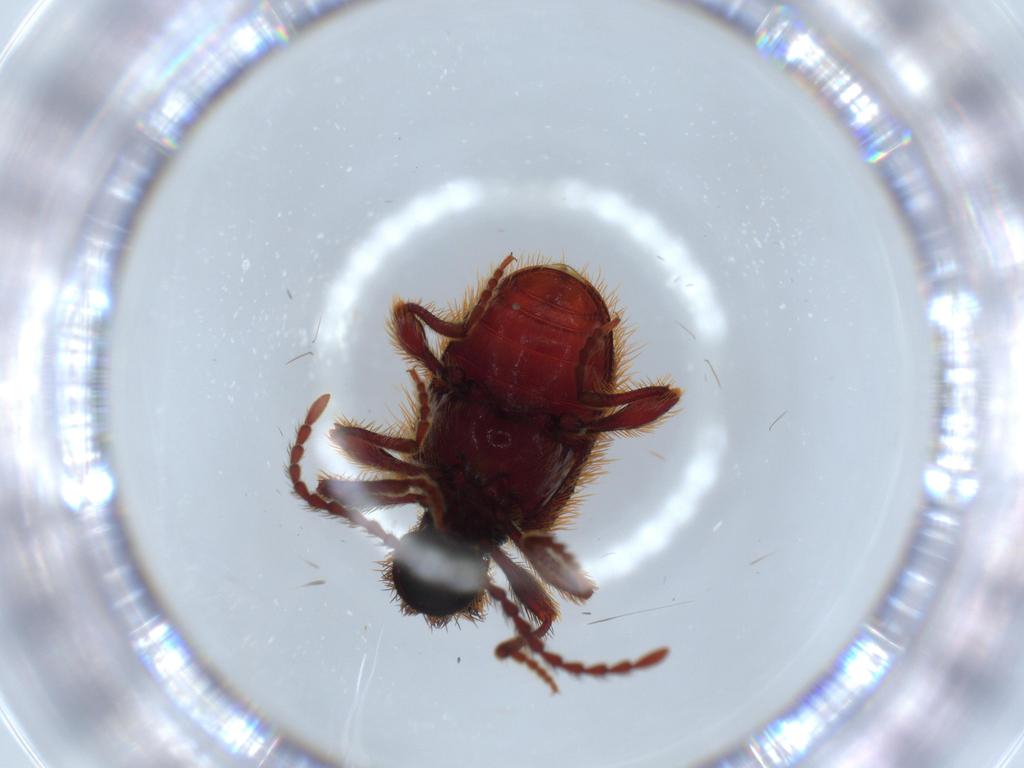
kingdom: Animalia
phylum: Arthropoda
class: Insecta
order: Coleoptera
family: Ptinidae
